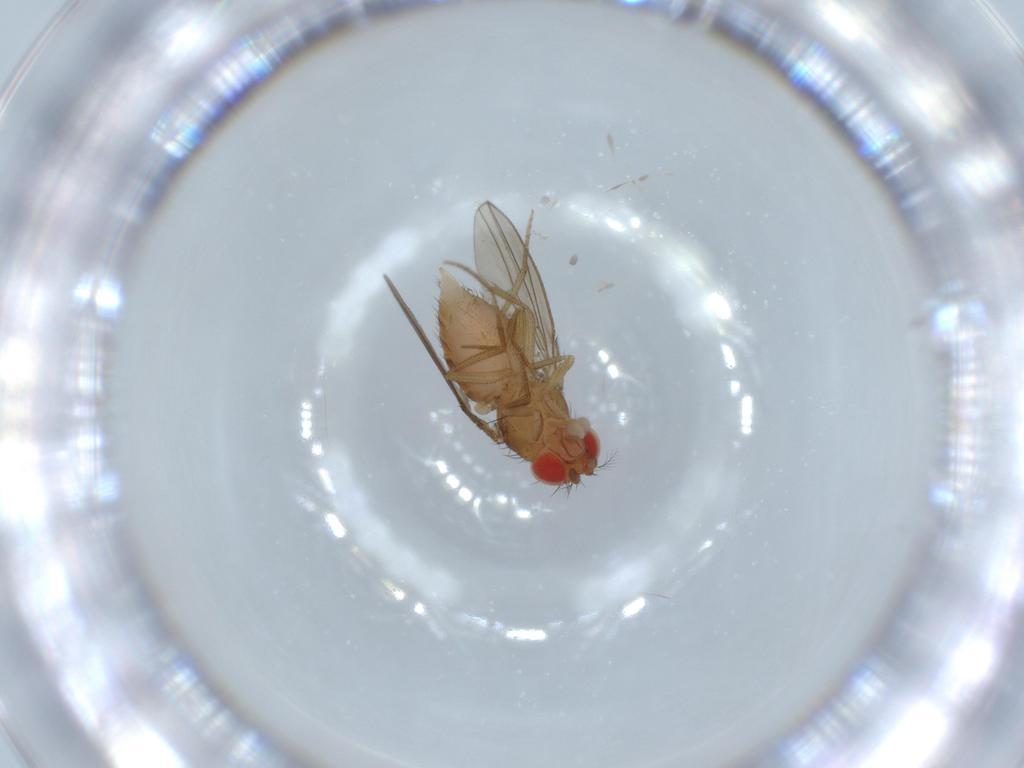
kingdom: Animalia
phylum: Arthropoda
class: Insecta
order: Diptera
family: Drosophilidae
